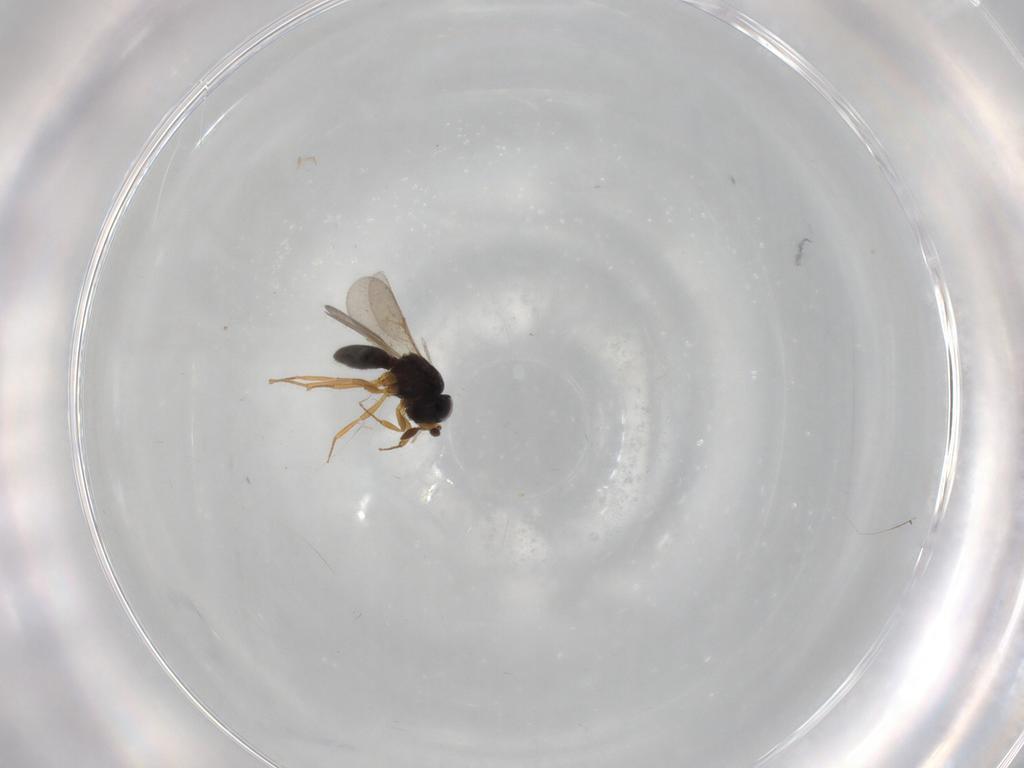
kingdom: Animalia
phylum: Arthropoda
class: Insecta
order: Hymenoptera
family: Scelionidae
